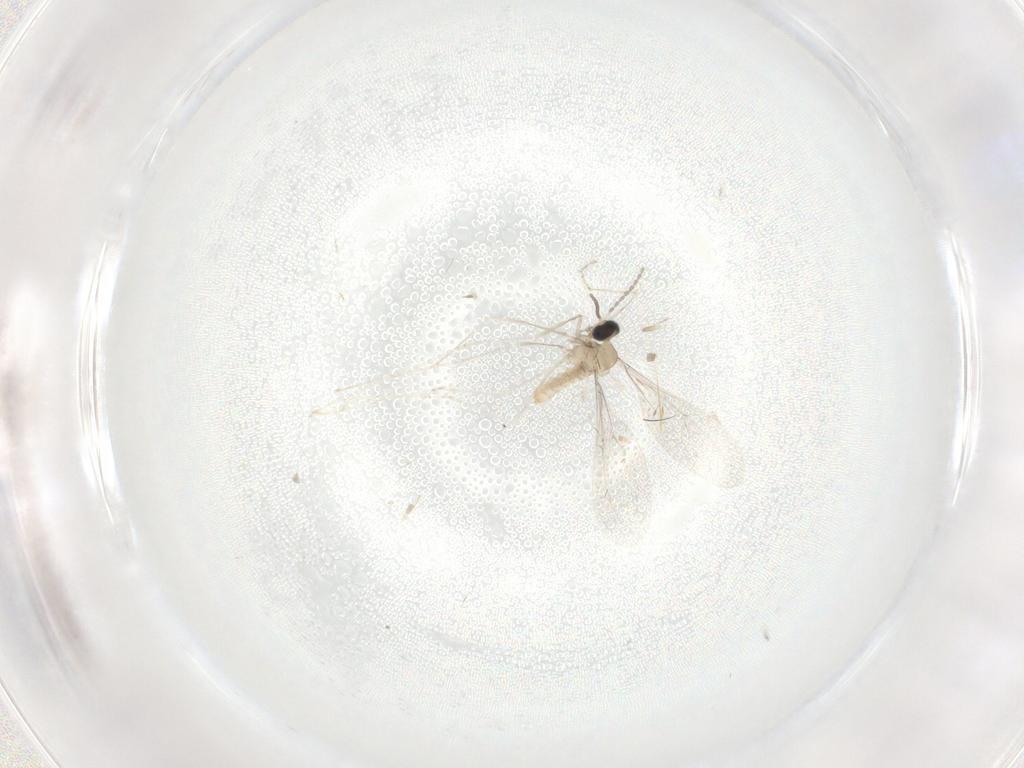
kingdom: Animalia
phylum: Arthropoda
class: Insecta
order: Diptera
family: Cecidomyiidae
